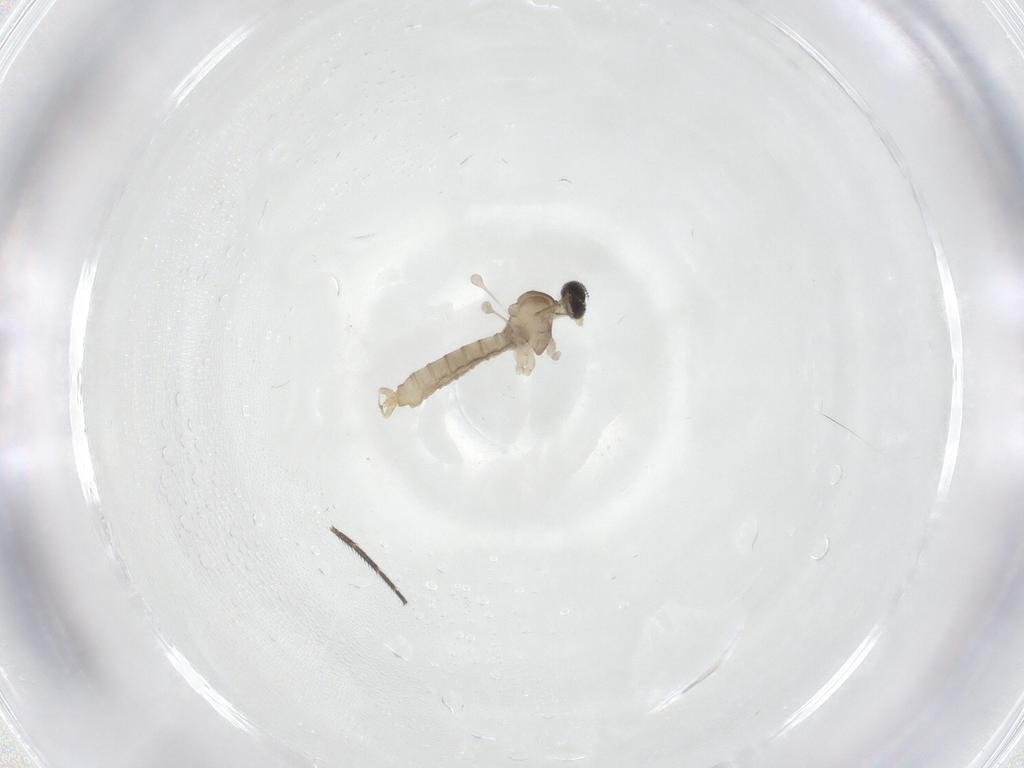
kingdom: Animalia
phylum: Arthropoda
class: Insecta
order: Diptera
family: Cecidomyiidae
